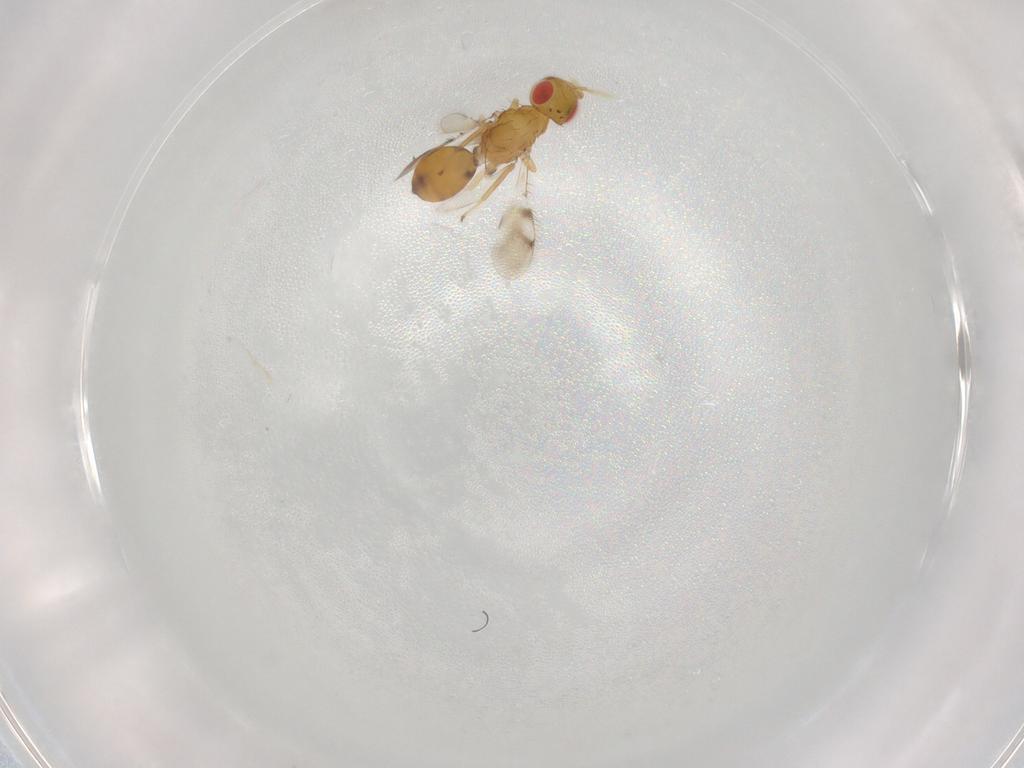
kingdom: Animalia
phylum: Arthropoda
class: Insecta
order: Hymenoptera
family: Eulophidae
